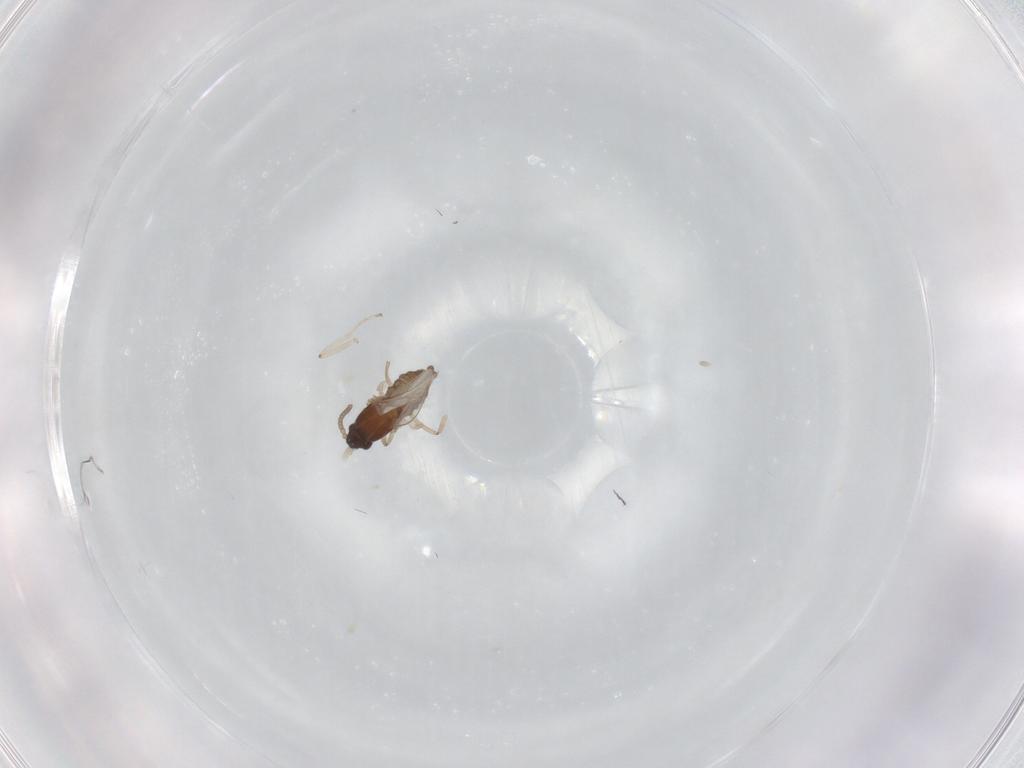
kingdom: Animalia
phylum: Arthropoda
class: Insecta
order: Diptera
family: Cecidomyiidae
